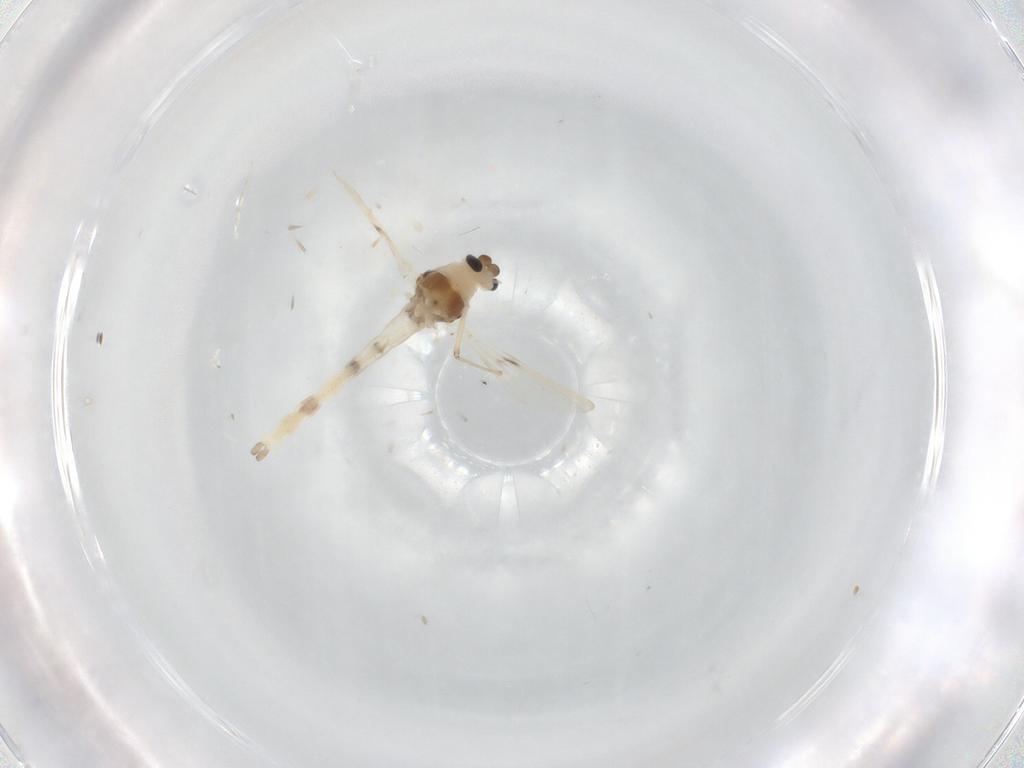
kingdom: Animalia
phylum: Arthropoda
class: Insecta
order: Diptera
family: Chironomidae
